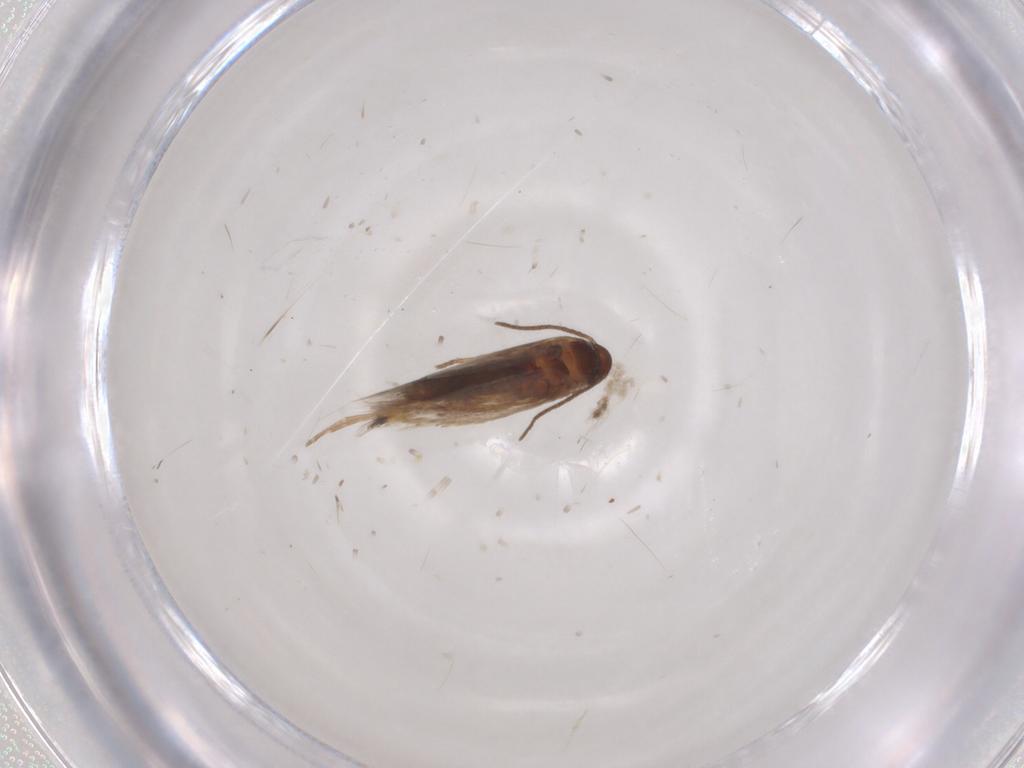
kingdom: Animalia
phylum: Arthropoda
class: Insecta
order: Lepidoptera
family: Heliozelidae
